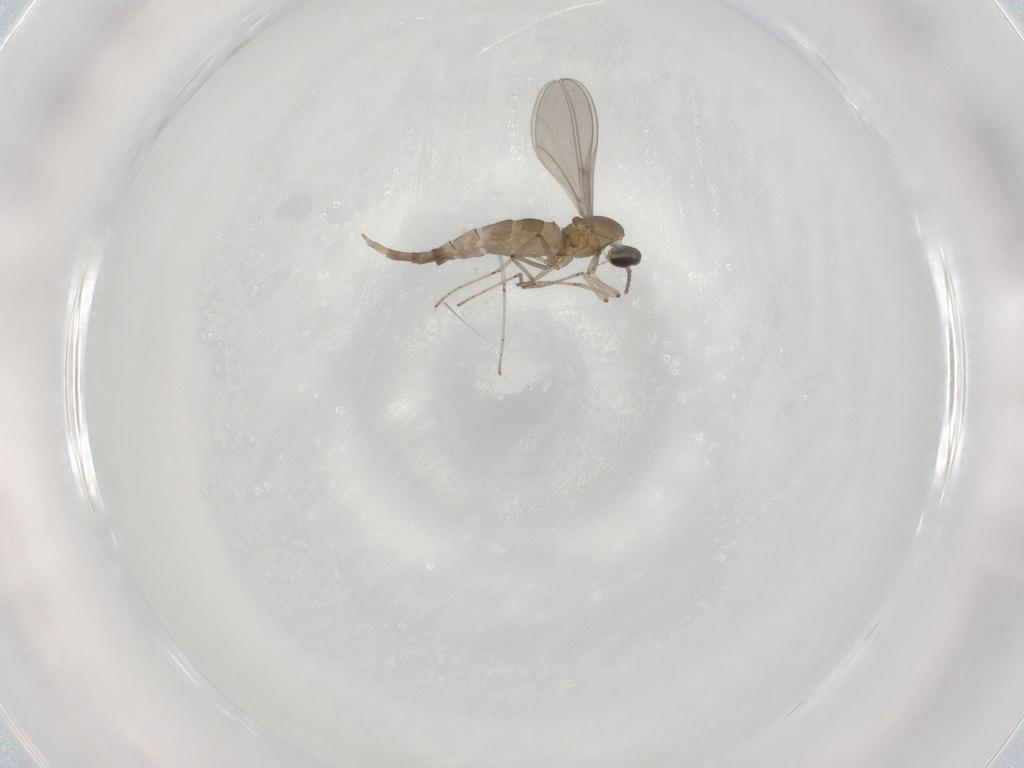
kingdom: Animalia
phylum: Arthropoda
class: Insecta
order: Diptera
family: Cecidomyiidae
